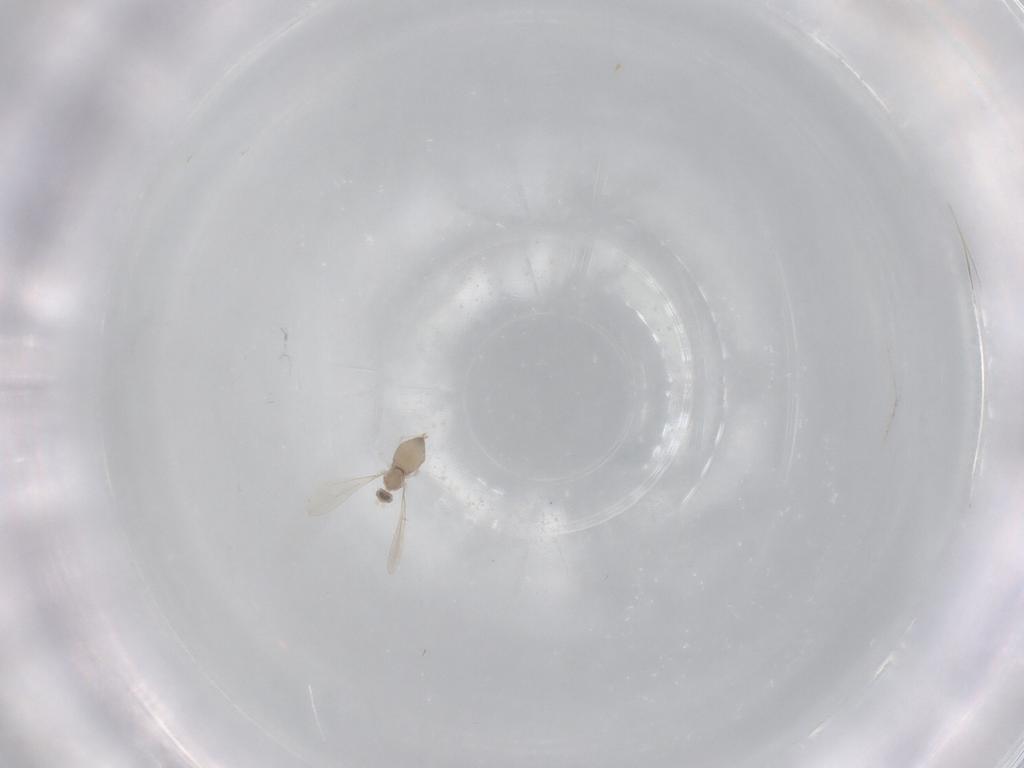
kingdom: Animalia
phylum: Arthropoda
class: Insecta
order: Diptera
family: Cecidomyiidae
